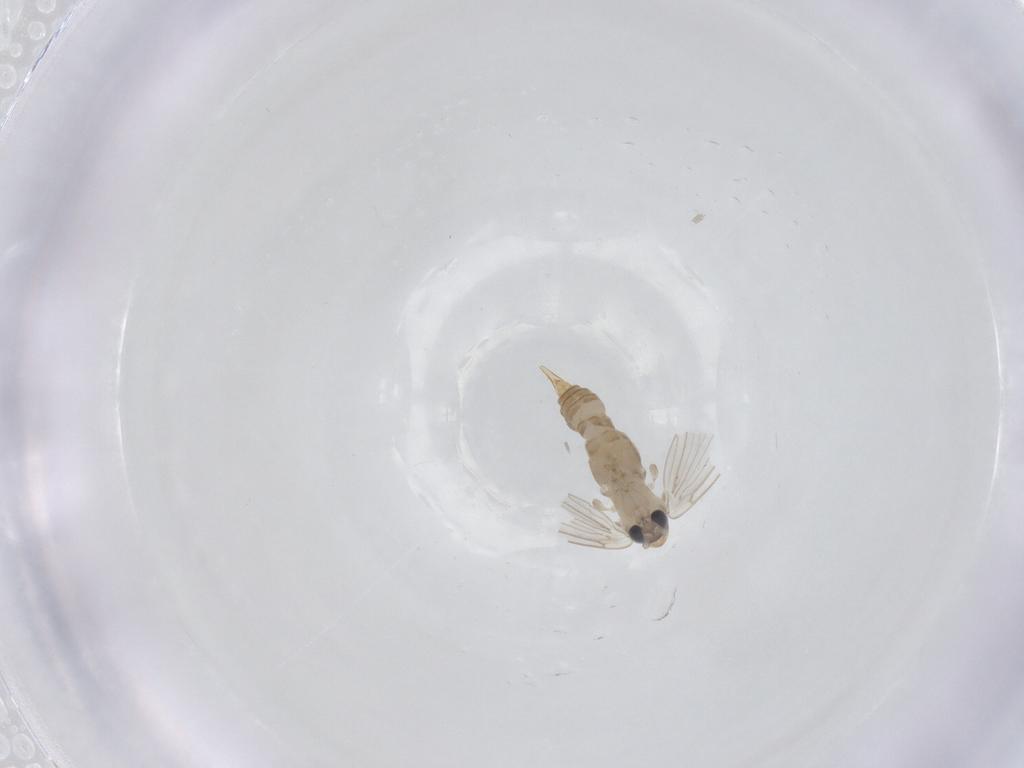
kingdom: Animalia
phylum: Arthropoda
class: Insecta
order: Diptera
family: Psychodidae
